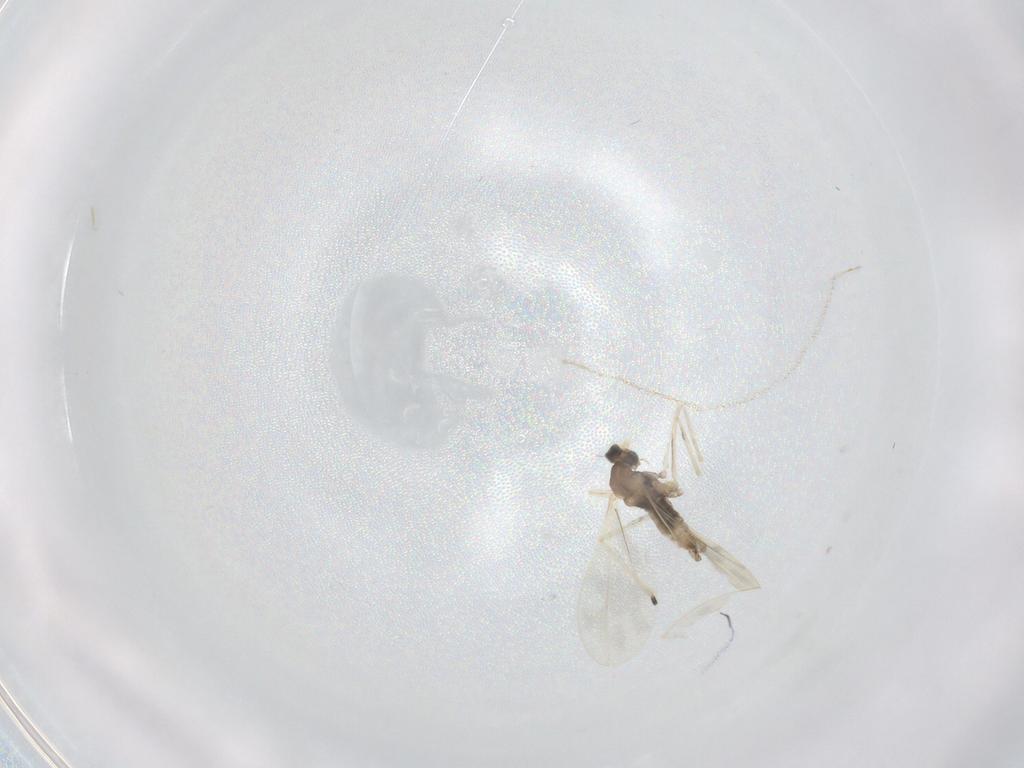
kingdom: Animalia
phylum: Arthropoda
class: Insecta
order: Diptera
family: Cecidomyiidae
